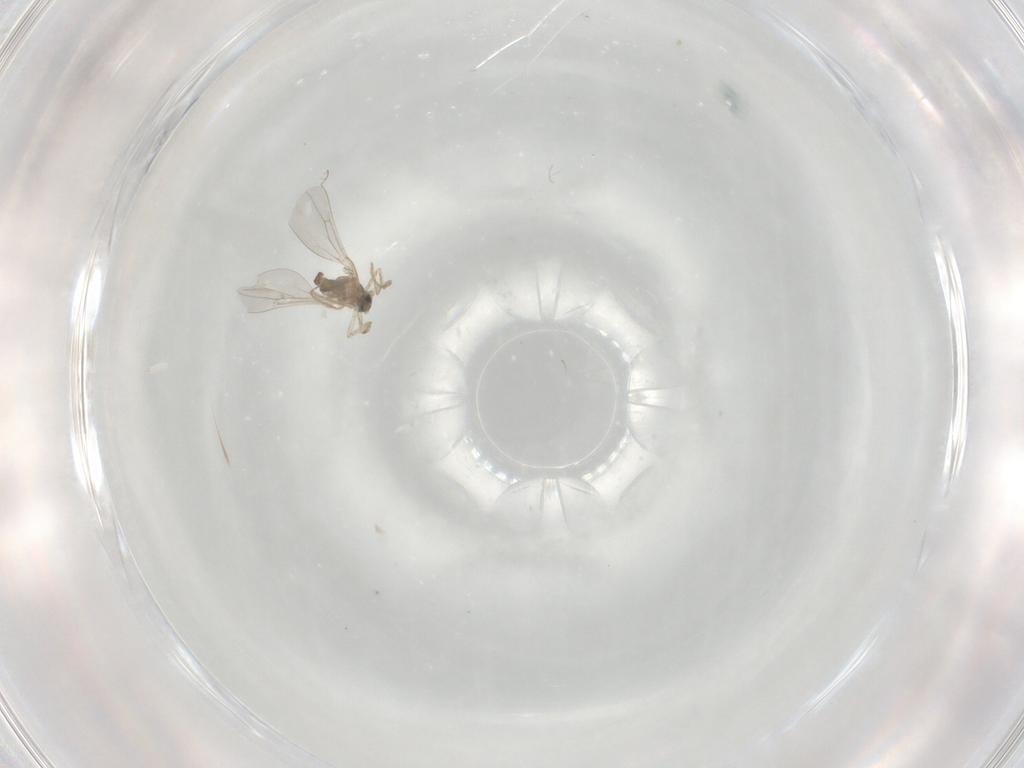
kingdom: Animalia
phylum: Arthropoda
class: Insecta
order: Diptera
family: Cecidomyiidae
